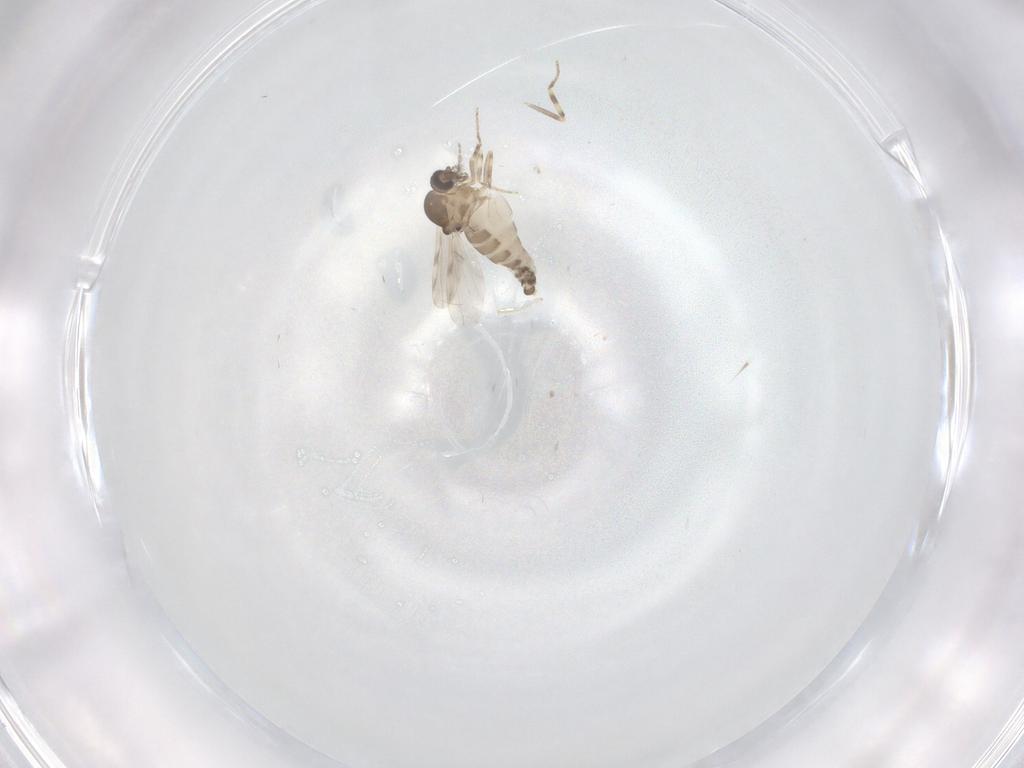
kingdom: Animalia
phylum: Arthropoda
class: Insecta
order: Diptera
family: Ceratopogonidae
